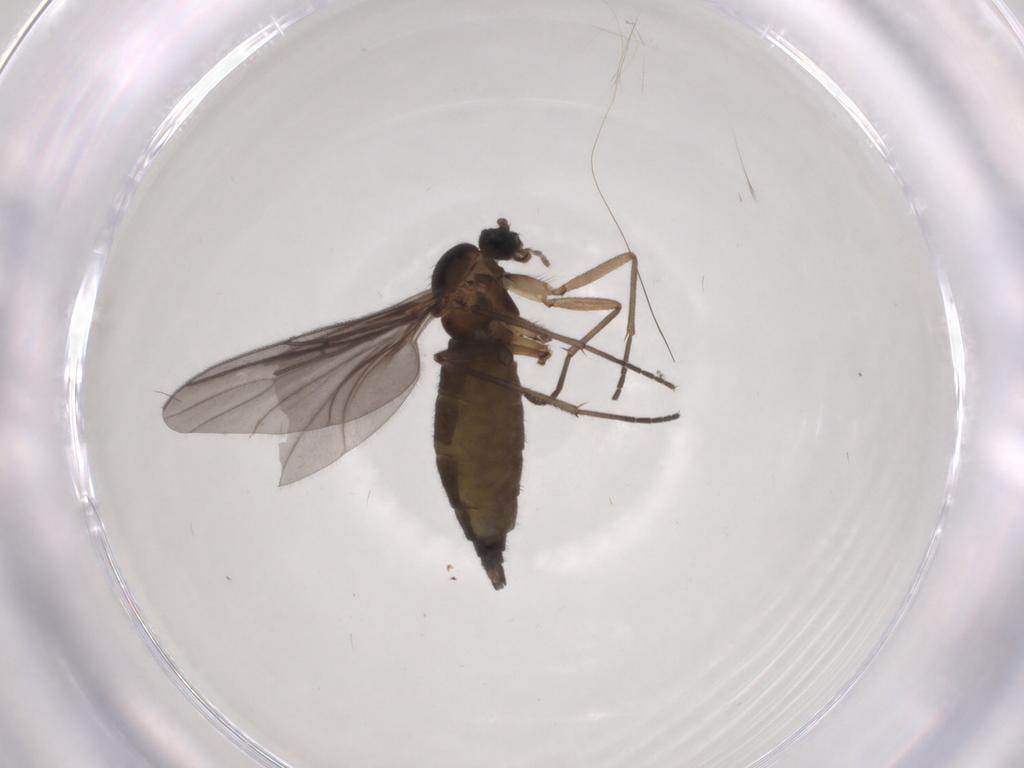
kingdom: Animalia
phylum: Arthropoda
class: Insecta
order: Diptera
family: Sciaridae
